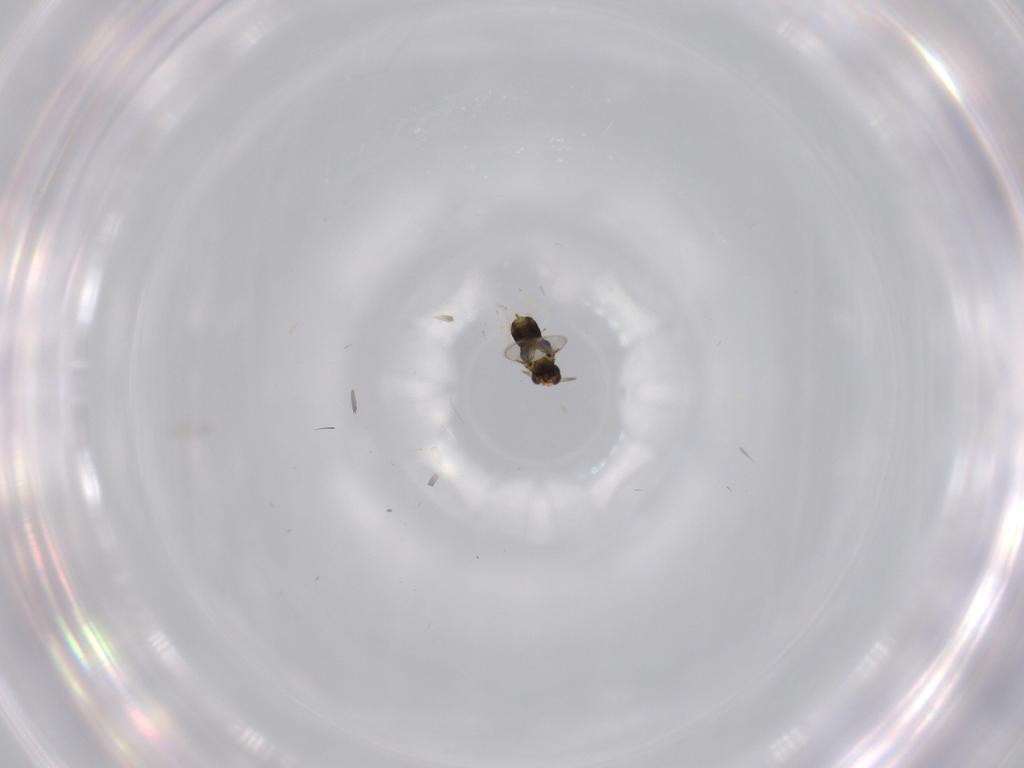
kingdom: Animalia
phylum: Arthropoda
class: Insecta
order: Hymenoptera
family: Aphelinidae
